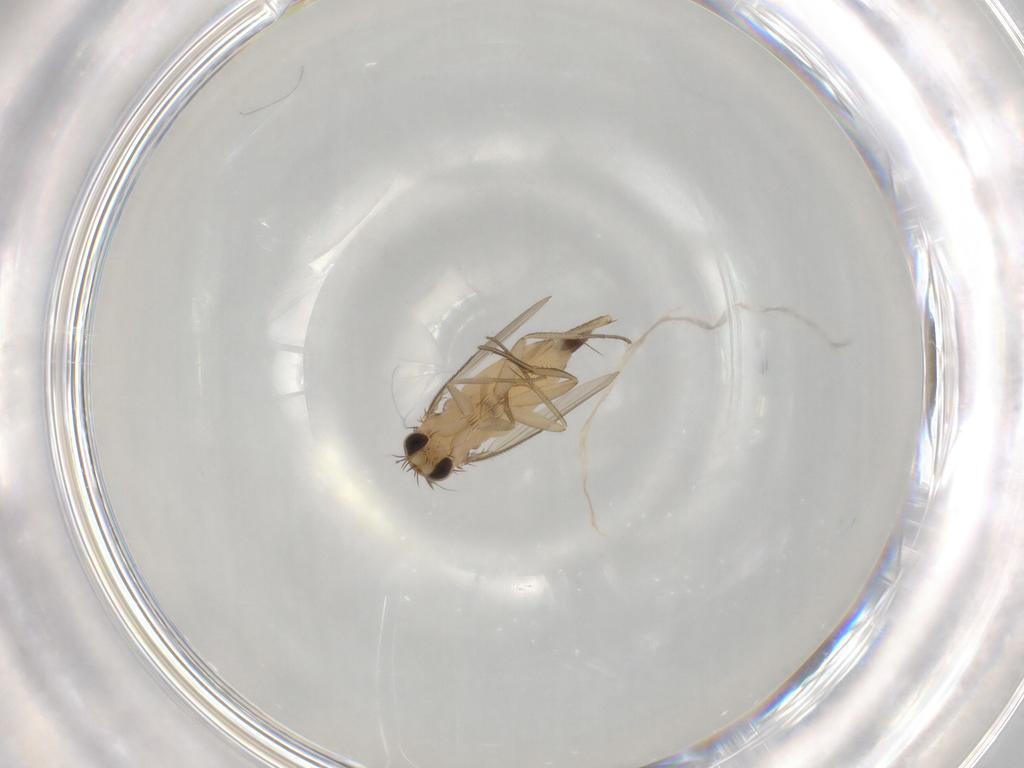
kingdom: Animalia
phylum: Arthropoda
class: Insecta
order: Diptera
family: Phoridae
